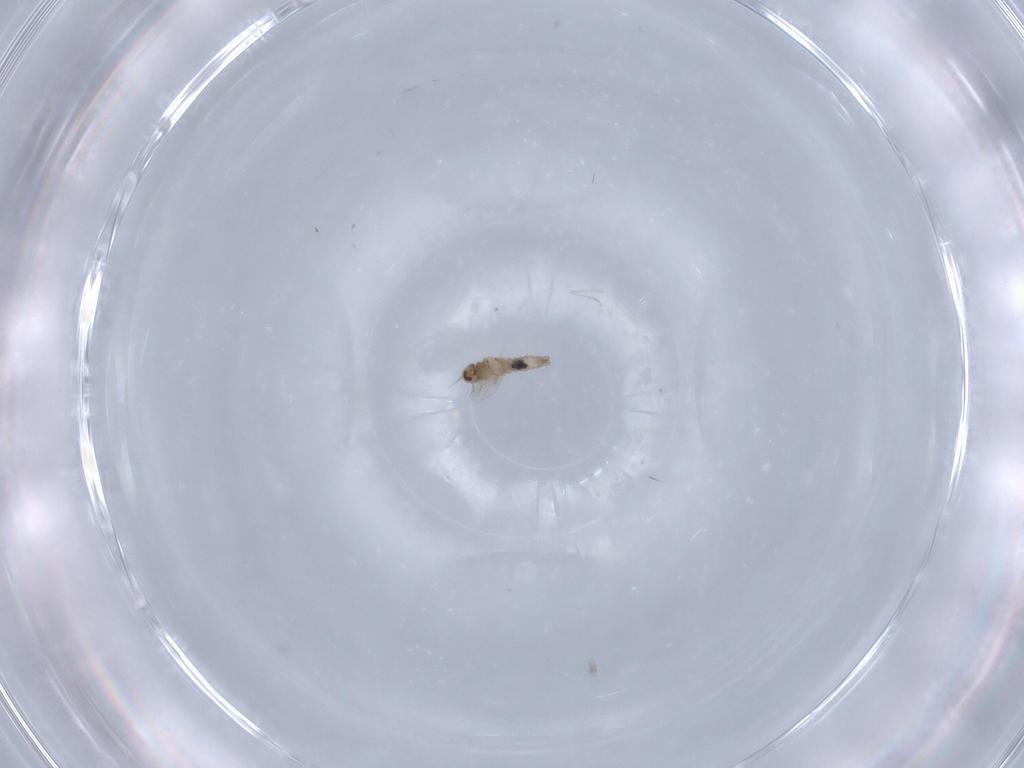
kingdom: Animalia
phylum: Arthropoda
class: Insecta
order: Diptera
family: Cecidomyiidae
